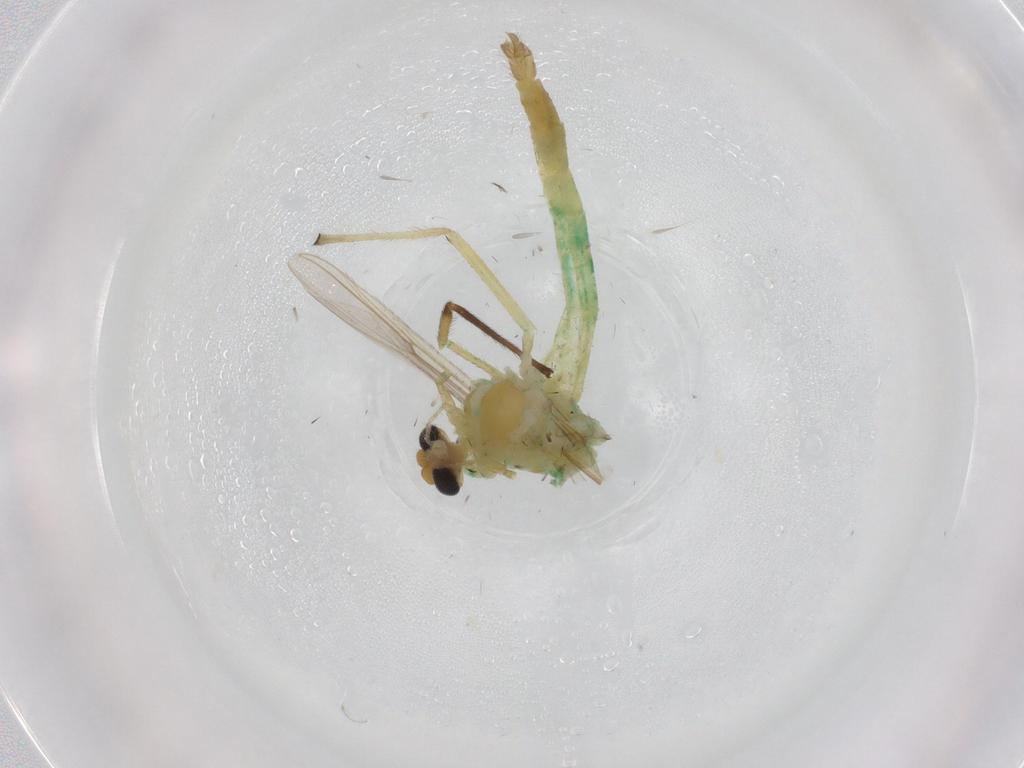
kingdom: Animalia
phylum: Arthropoda
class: Insecta
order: Diptera
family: Chironomidae
